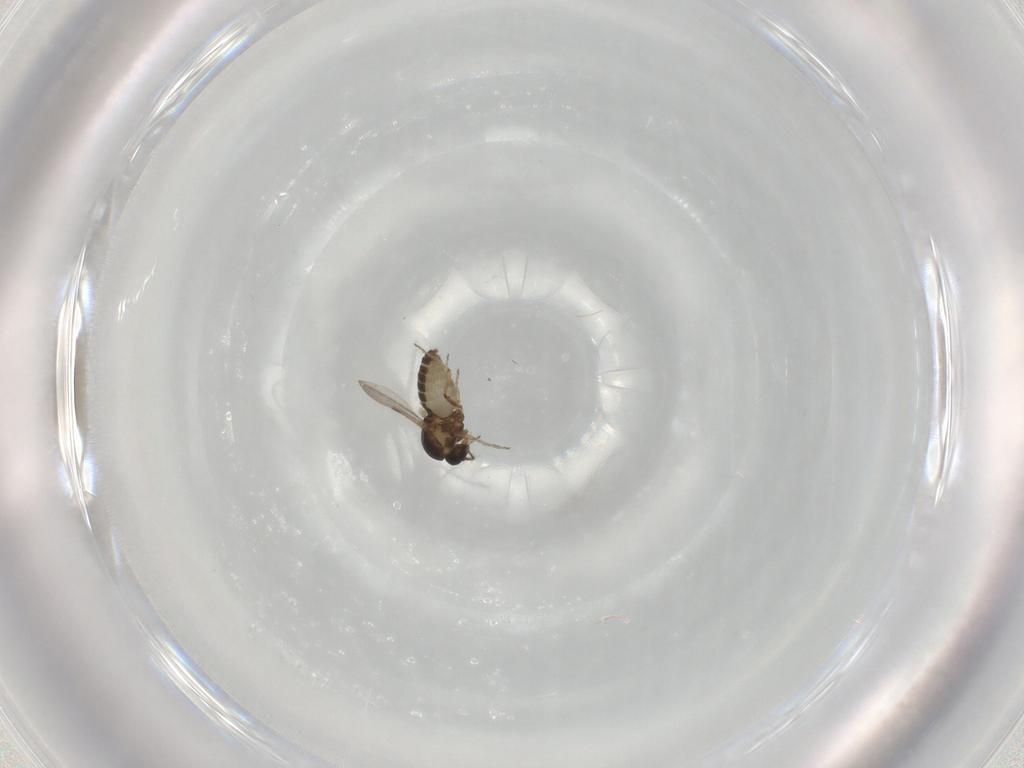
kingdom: Animalia
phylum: Arthropoda
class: Insecta
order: Diptera
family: Ceratopogonidae
